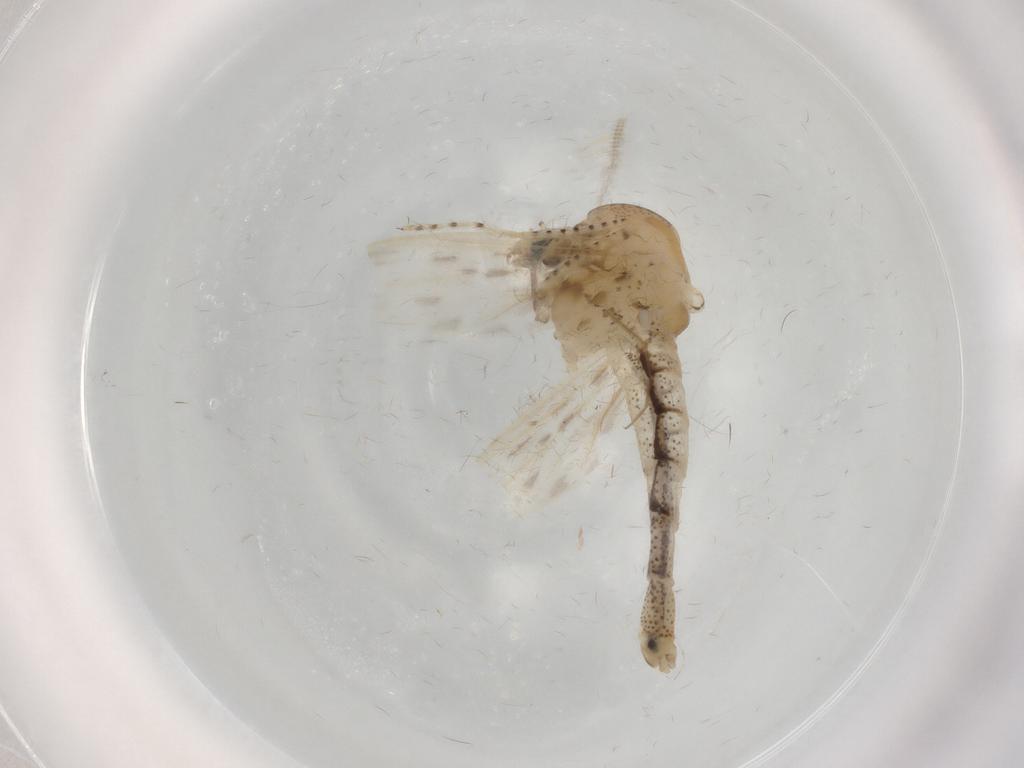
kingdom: Animalia
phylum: Arthropoda
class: Insecta
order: Diptera
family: Chaoboridae
